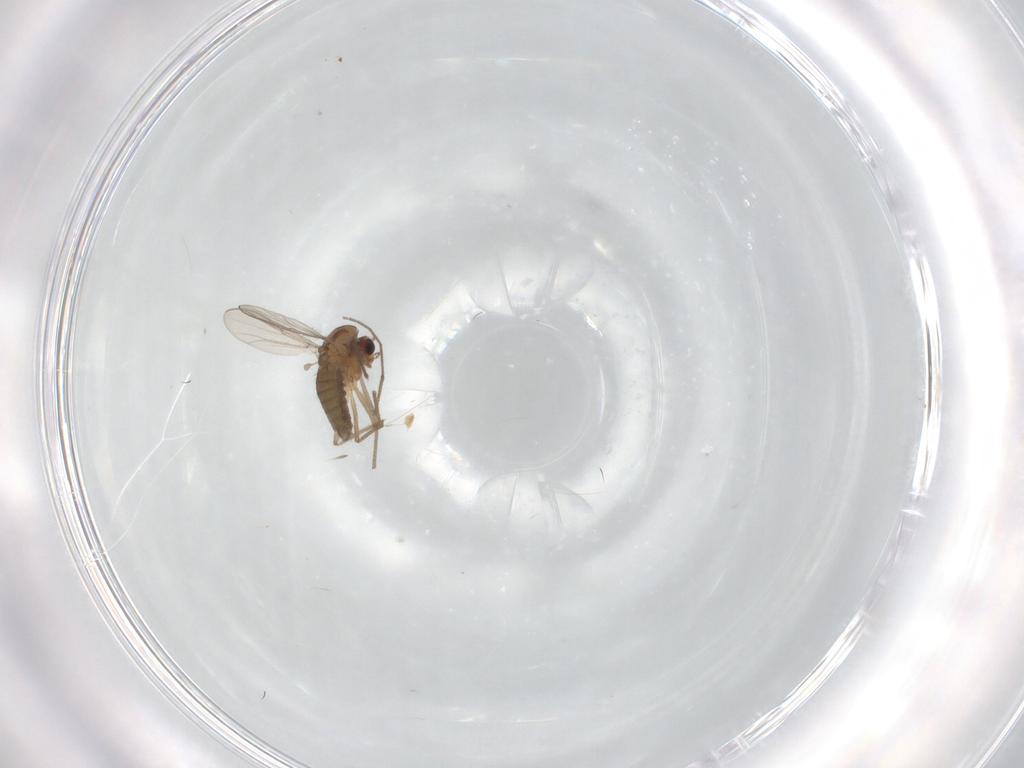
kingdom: Animalia
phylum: Arthropoda
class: Insecta
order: Diptera
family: Chironomidae
